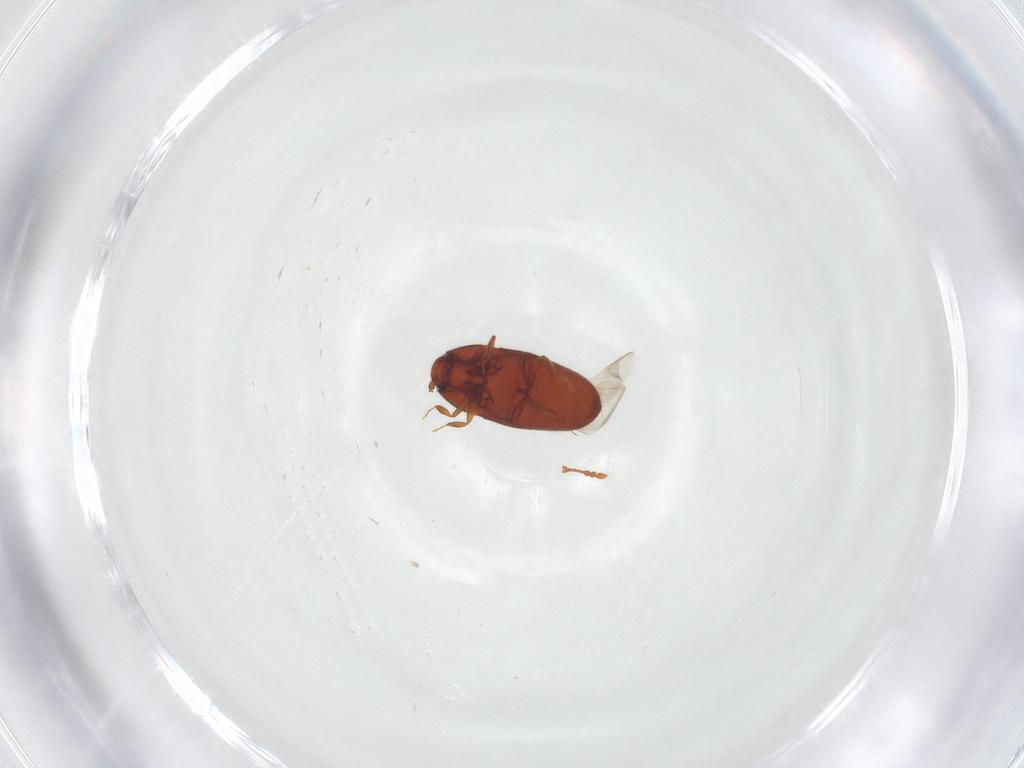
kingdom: Animalia
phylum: Arthropoda
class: Insecta
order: Coleoptera
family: Throscidae
